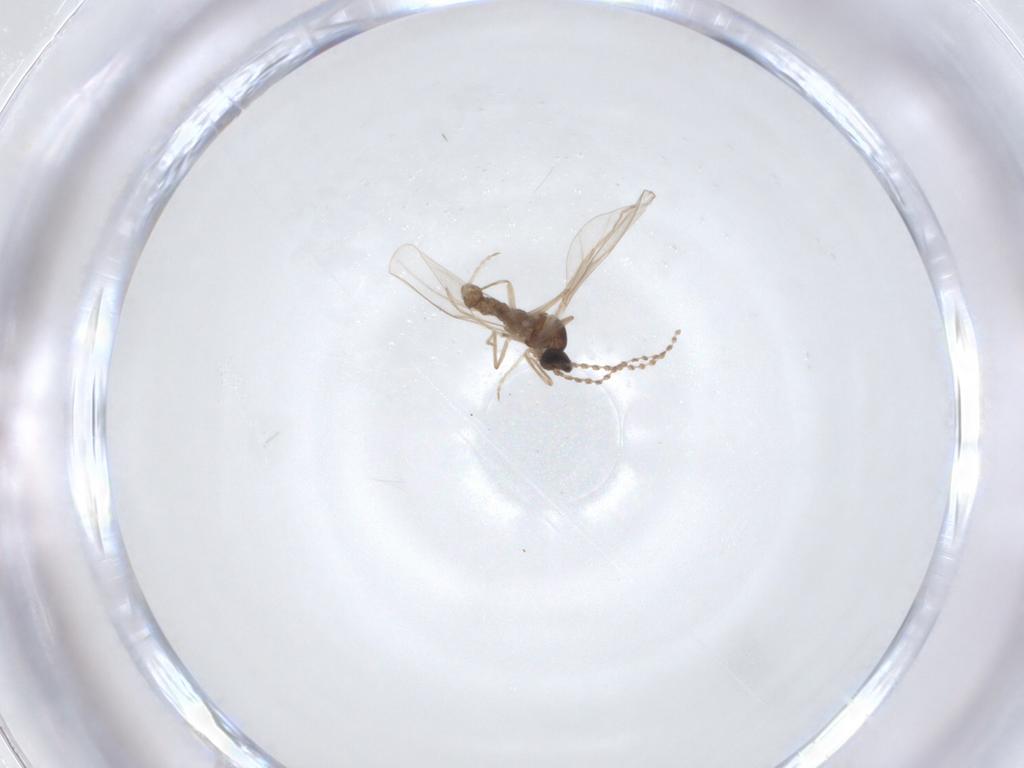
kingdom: Animalia
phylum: Arthropoda
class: Insecta
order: Diptera
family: Cecidomyiidae
